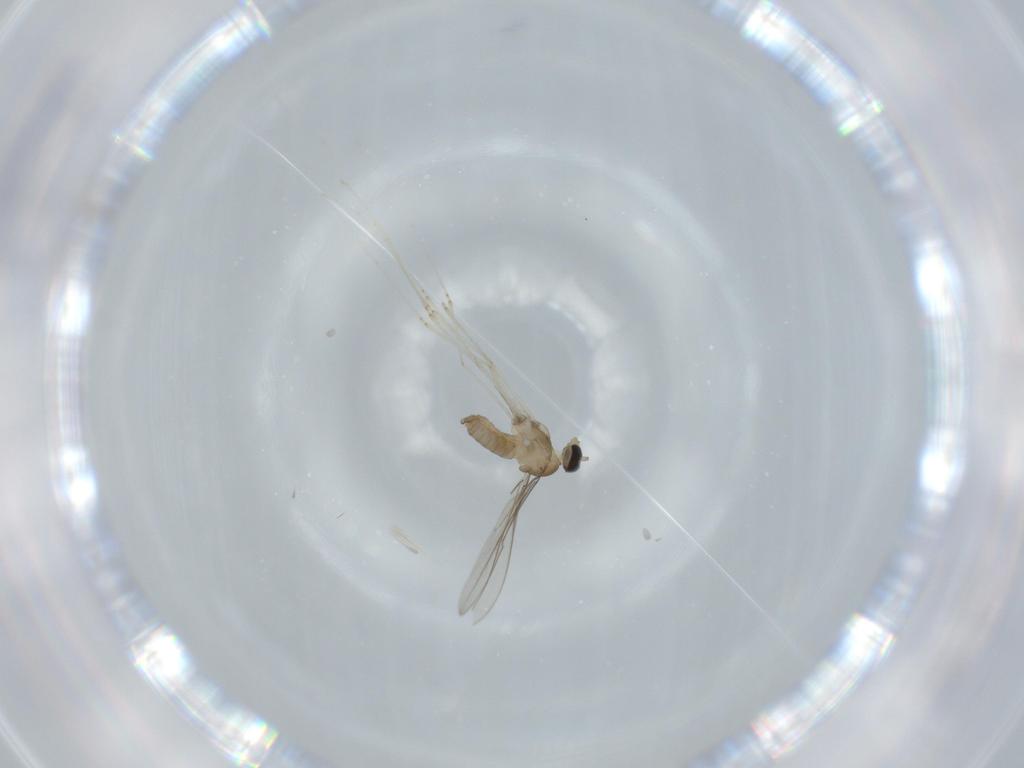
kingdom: Animalia
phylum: Arthropoda
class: Insecta
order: Diptera
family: Cecidomyiidae
